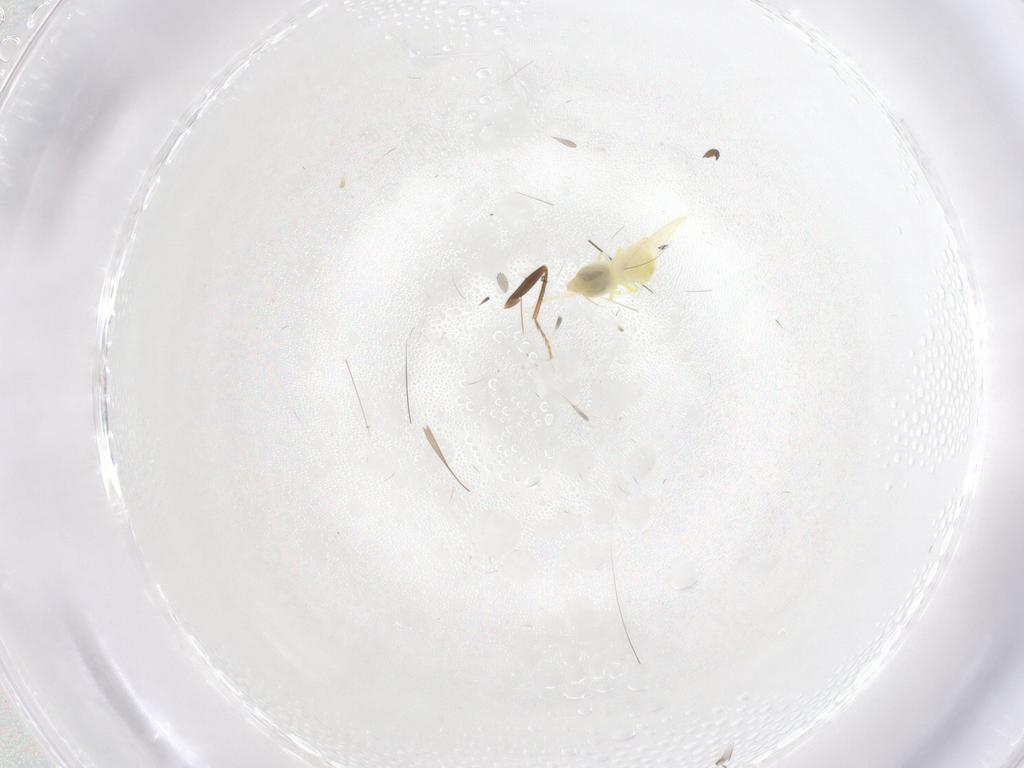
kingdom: Animalia
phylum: Arthropoda
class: Insecta
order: Hemiptera
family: Aleyrodidae
